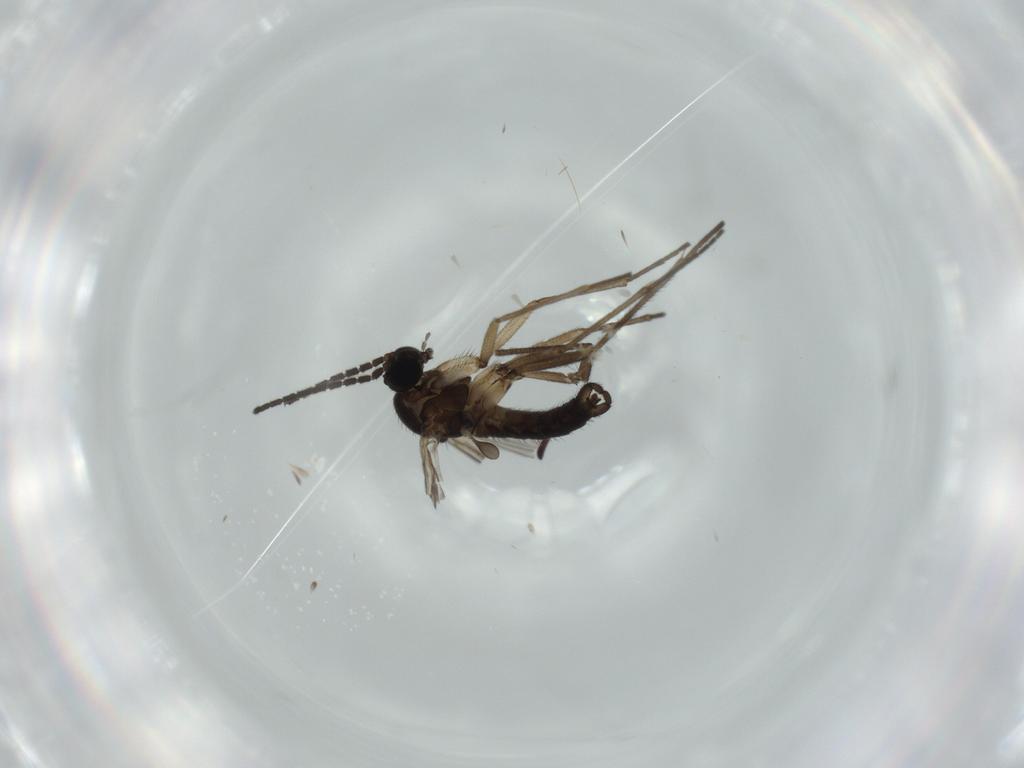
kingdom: Animalia
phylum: Arthropoda
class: Insecta
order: Diptera
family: Sciaridae
